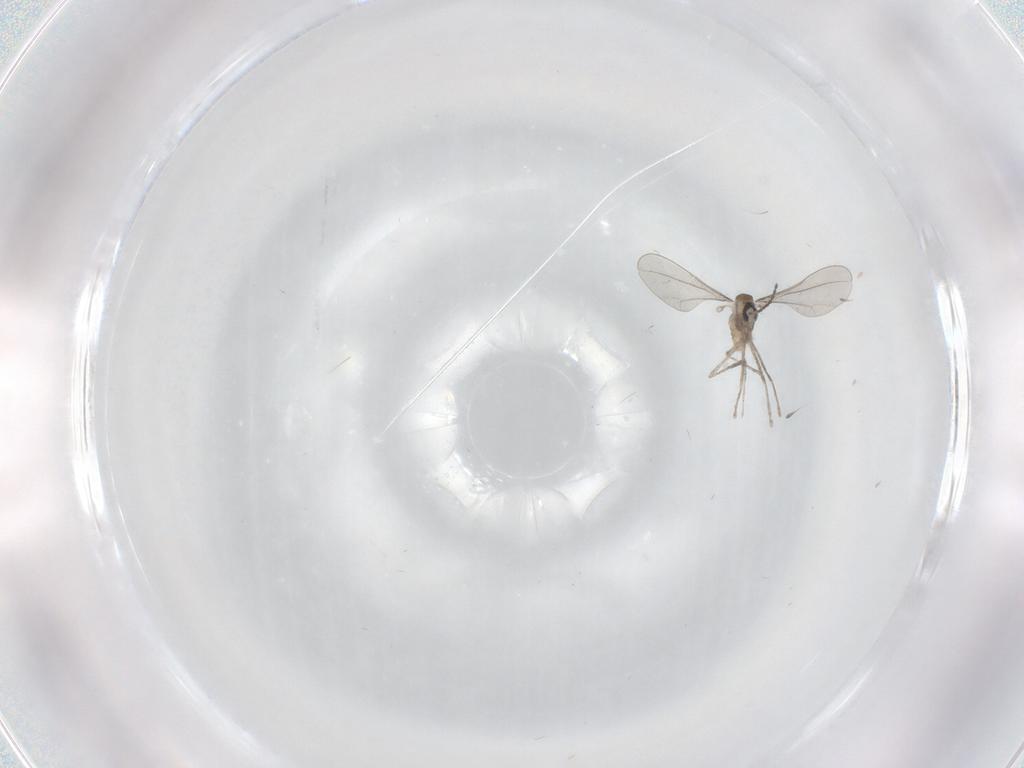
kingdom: Animalia
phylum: Arthropoda
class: Insecta
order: Diptera
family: Cecidomyiidae
